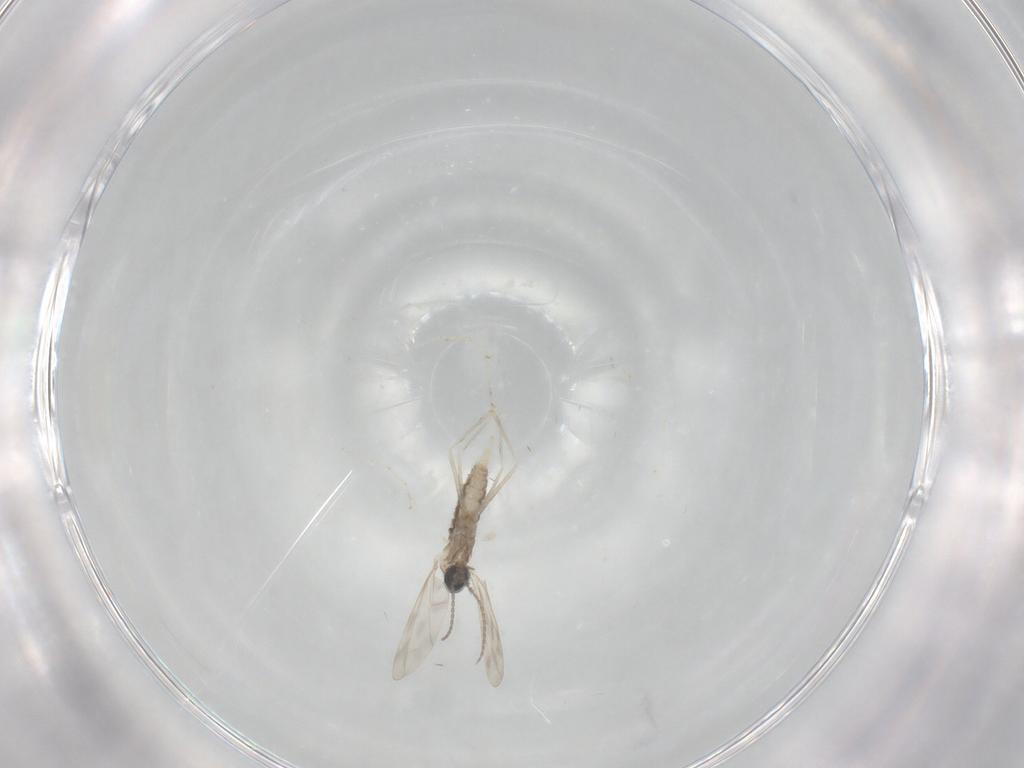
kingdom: Animalia
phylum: Arthropoda
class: Insecta
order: Diptera
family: Cecidomyiidae
